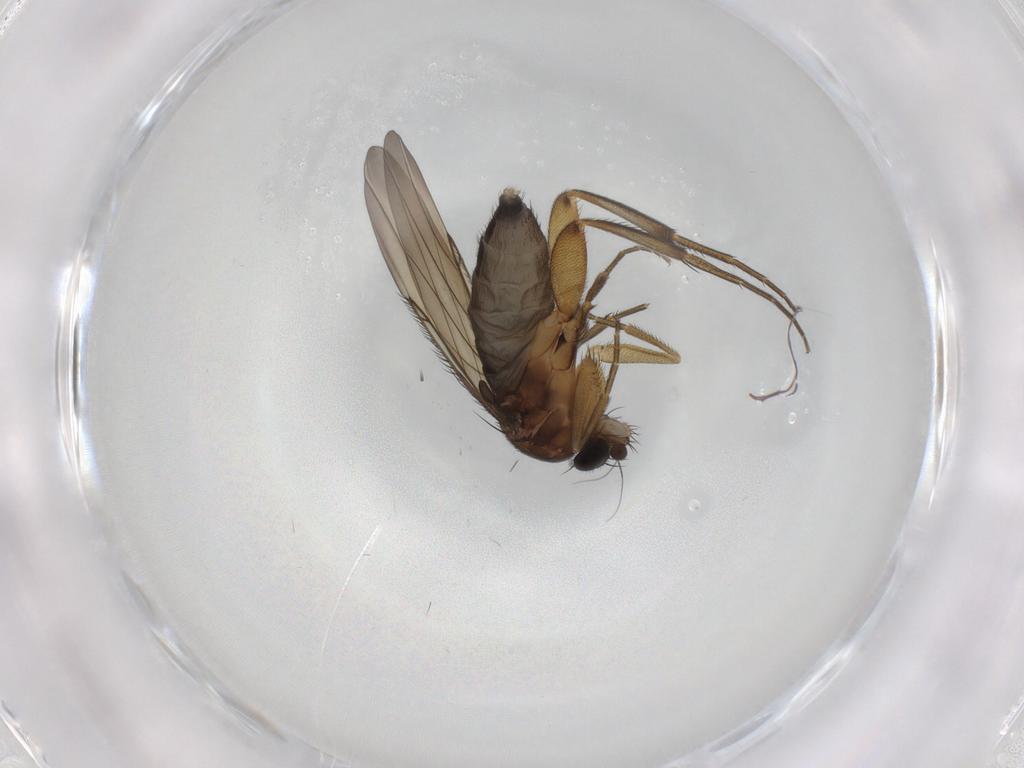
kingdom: Animalia
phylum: Arthropoda
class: Insecta
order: Diptera
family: Phoridae
